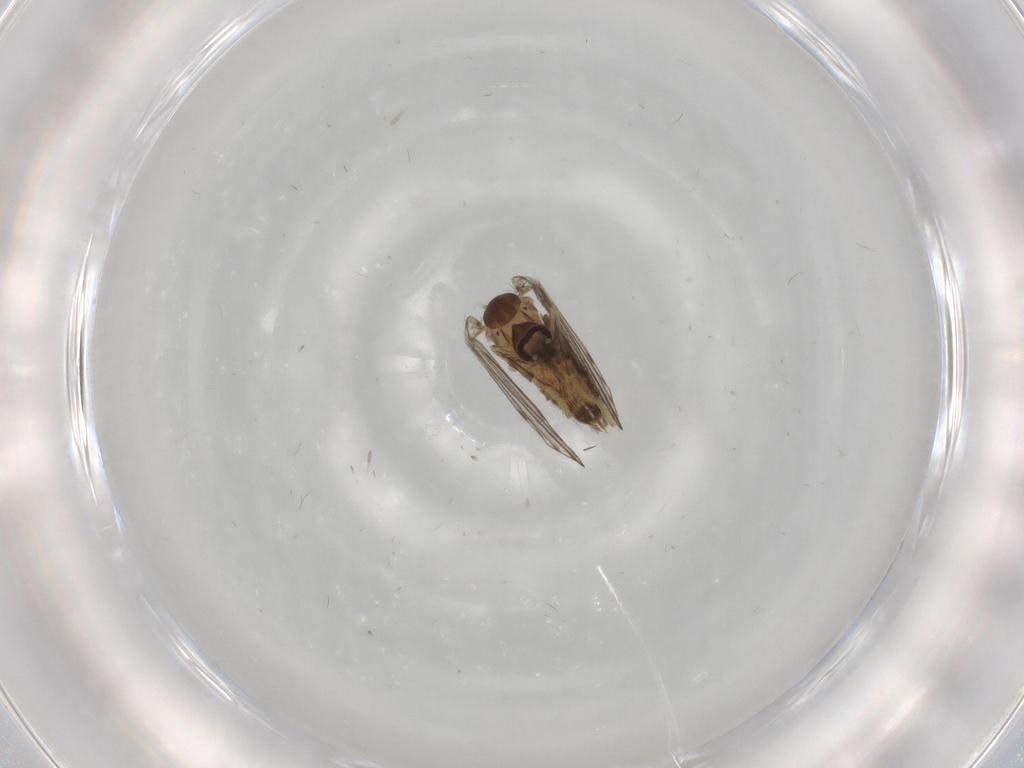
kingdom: Animalia
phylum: Arthropoda
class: Insecta
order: Diptera
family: Psychodidae
